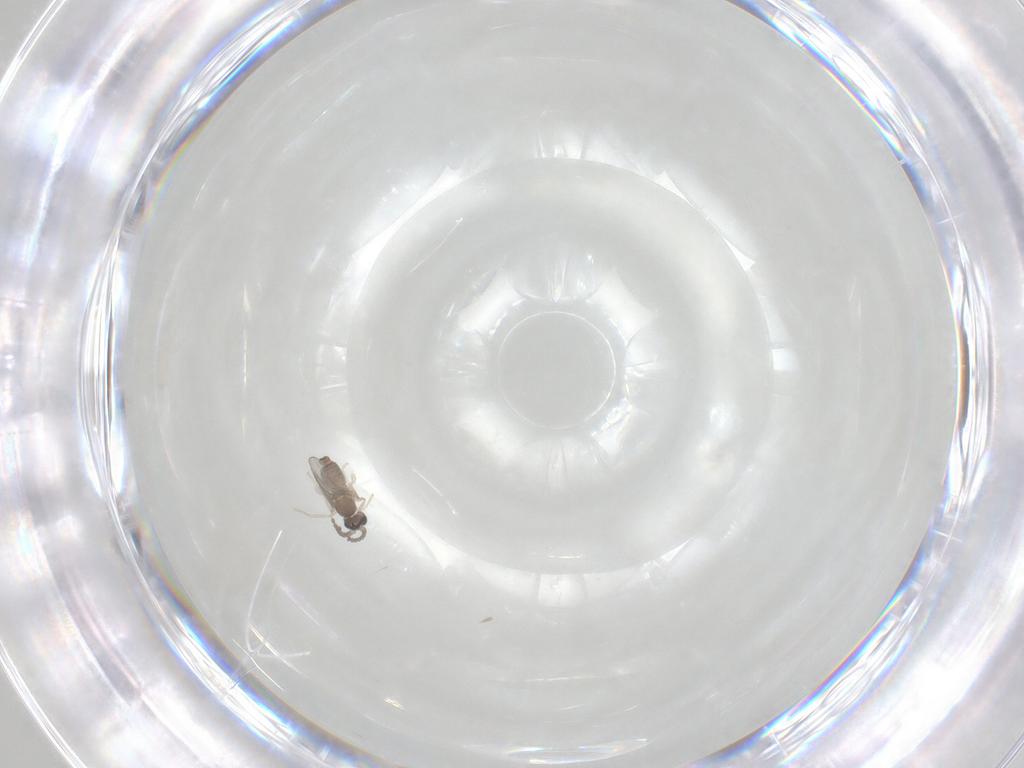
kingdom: Animalia
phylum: Arthropoda
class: Insecta
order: Diptera
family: Cecidomyiidae
